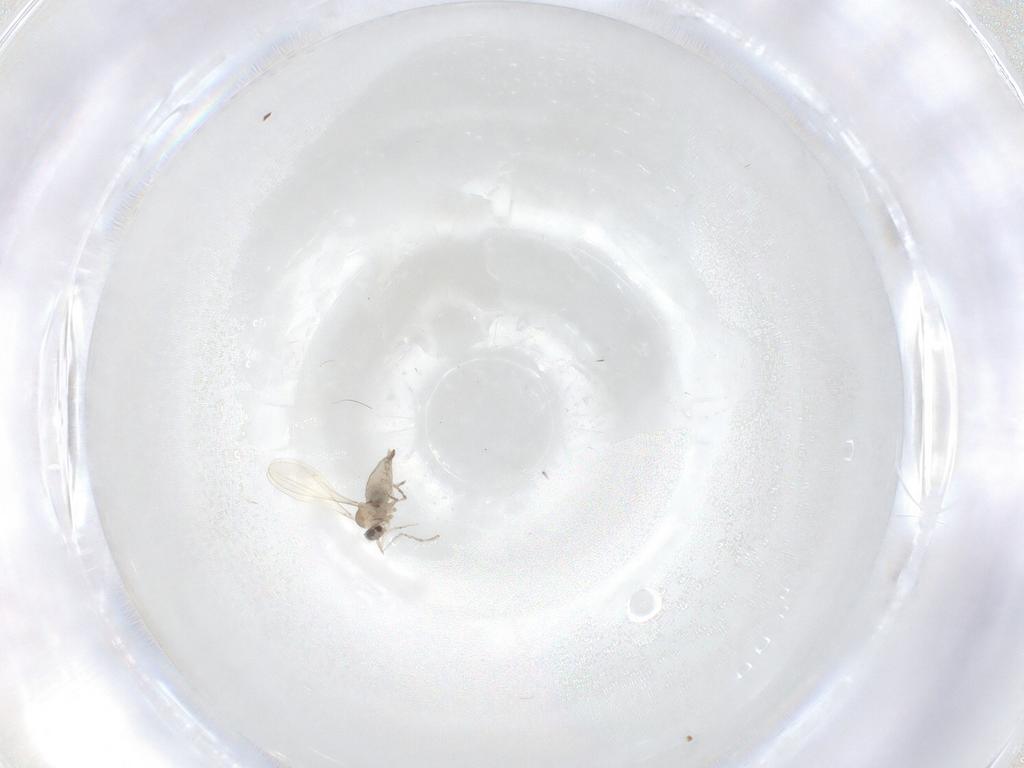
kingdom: Animalia
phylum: Arthropoda
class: Insecta
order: Diptera
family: Cecidomyiidae
